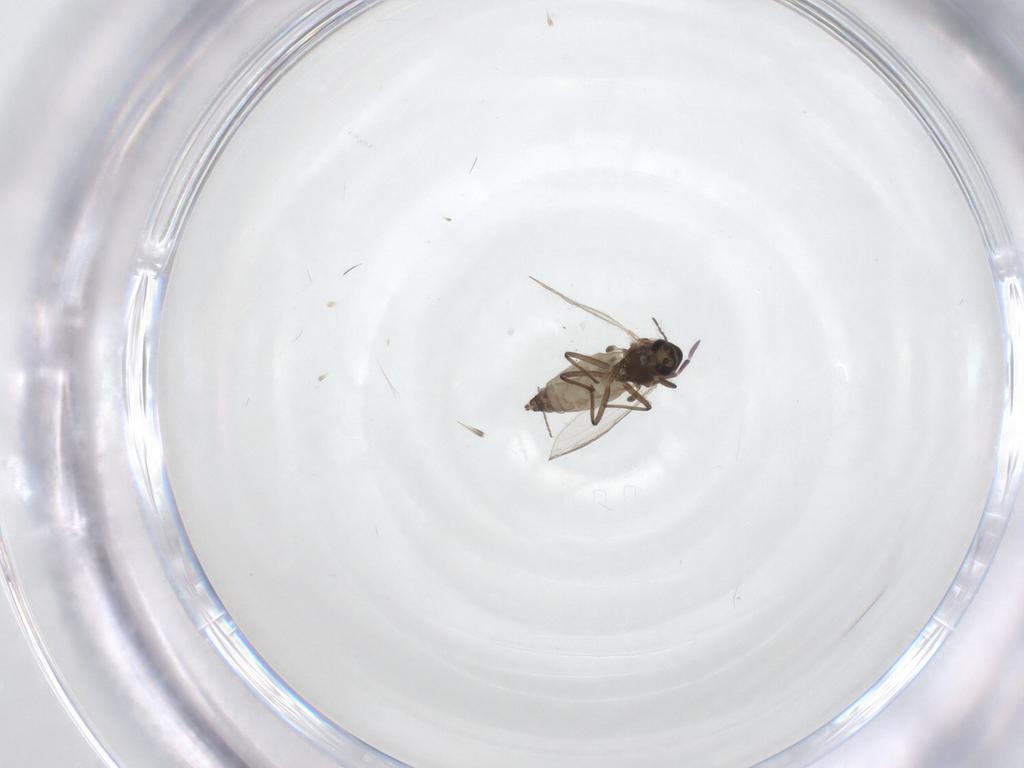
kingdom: Animalia
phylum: Arthropoda
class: Insecta
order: Diptera
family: Chironomidae
